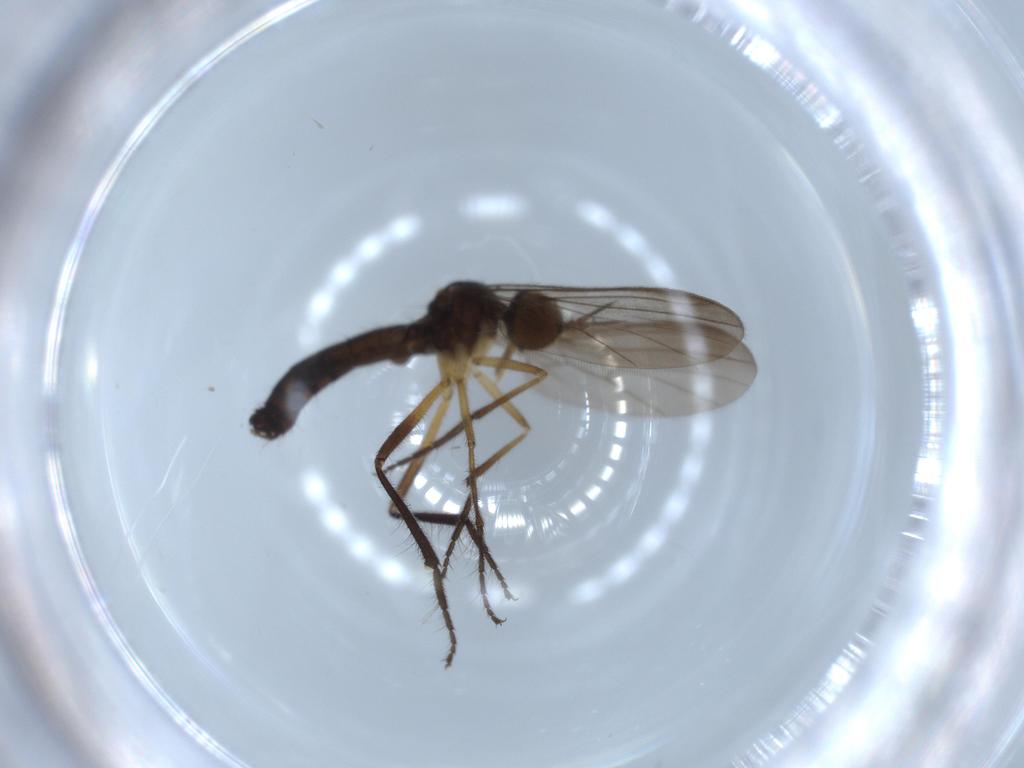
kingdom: Animalia
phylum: Arthropoda
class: Insecta
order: Diptera
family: Empididae
